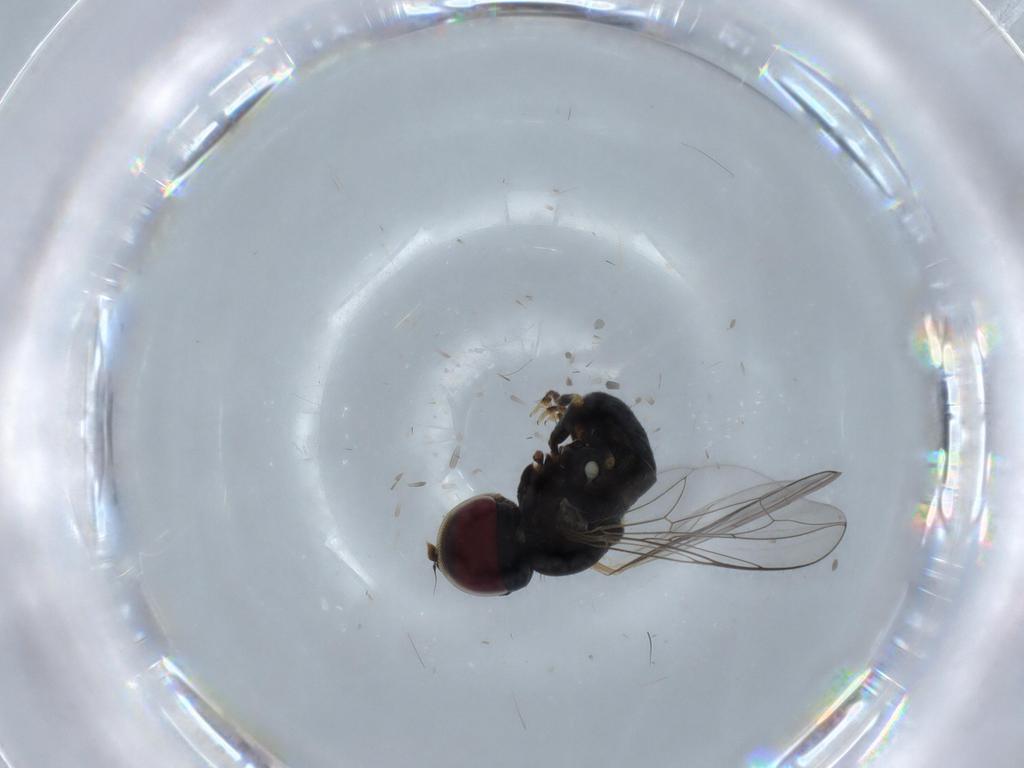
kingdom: Animalia
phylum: Arthropoda
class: Insecta
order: Diptera
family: Pipunculidae
